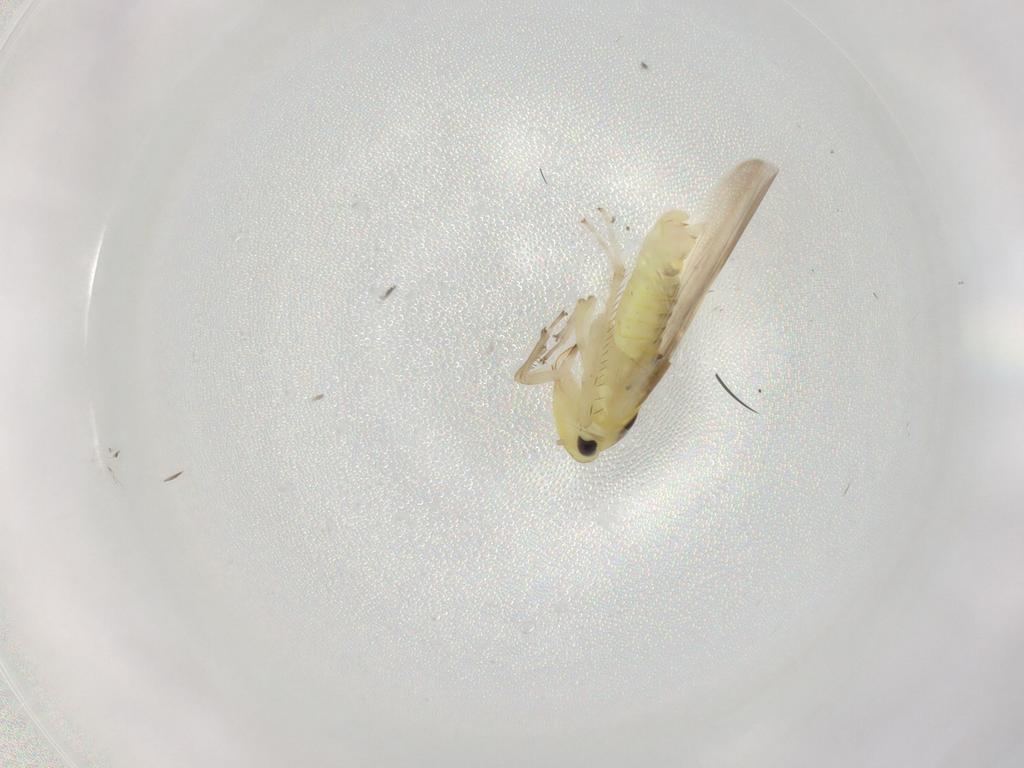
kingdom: Animalia
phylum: Arthropoda
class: Insecta
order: Hemiptera
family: Cicadellidae
